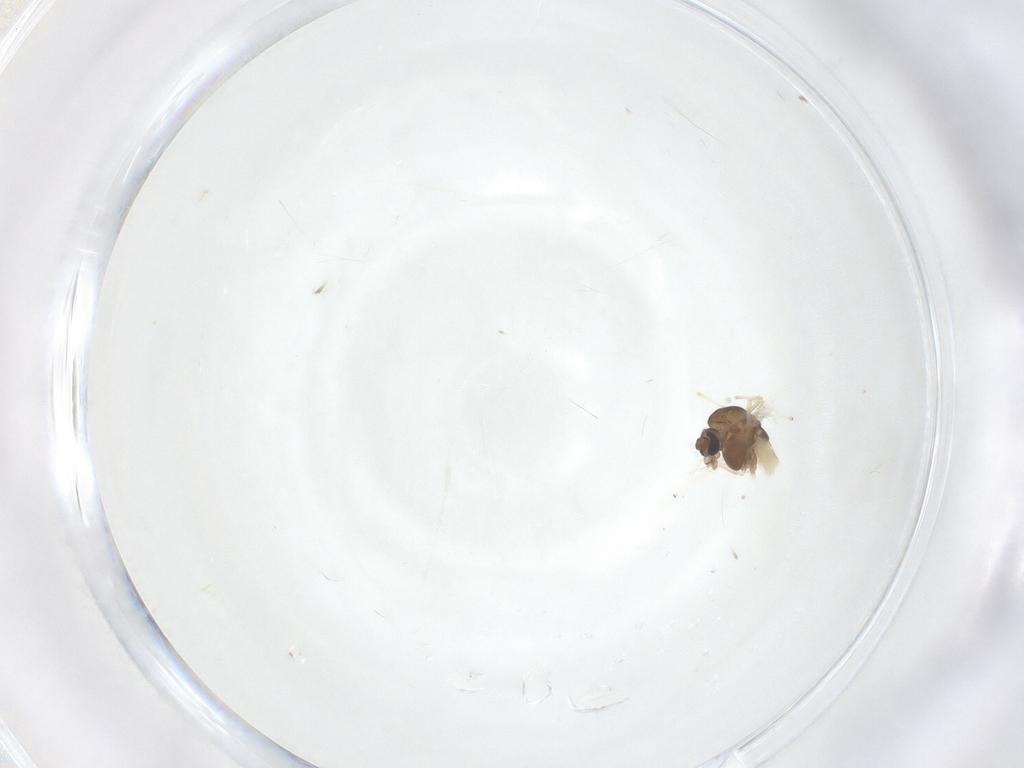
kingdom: Animalia
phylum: Arthropoda
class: Insecta
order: Diptera
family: Chironomidae
